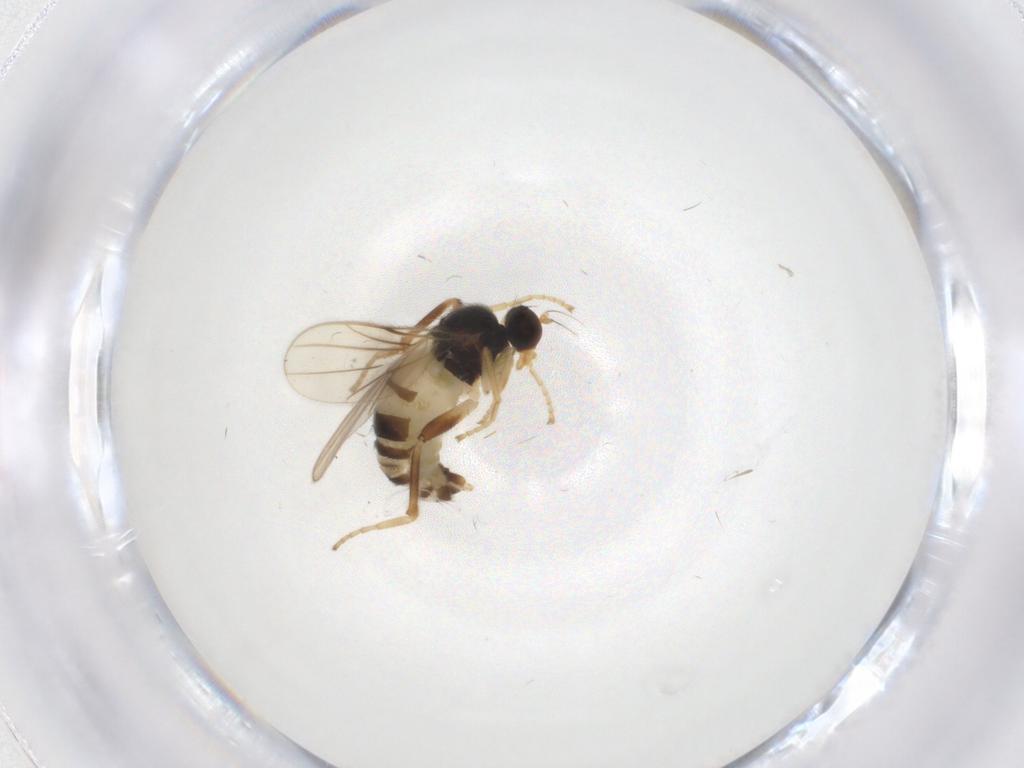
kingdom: Animalia
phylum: Arthropoda
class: Insecta
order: Diptera
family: Hybotidae
